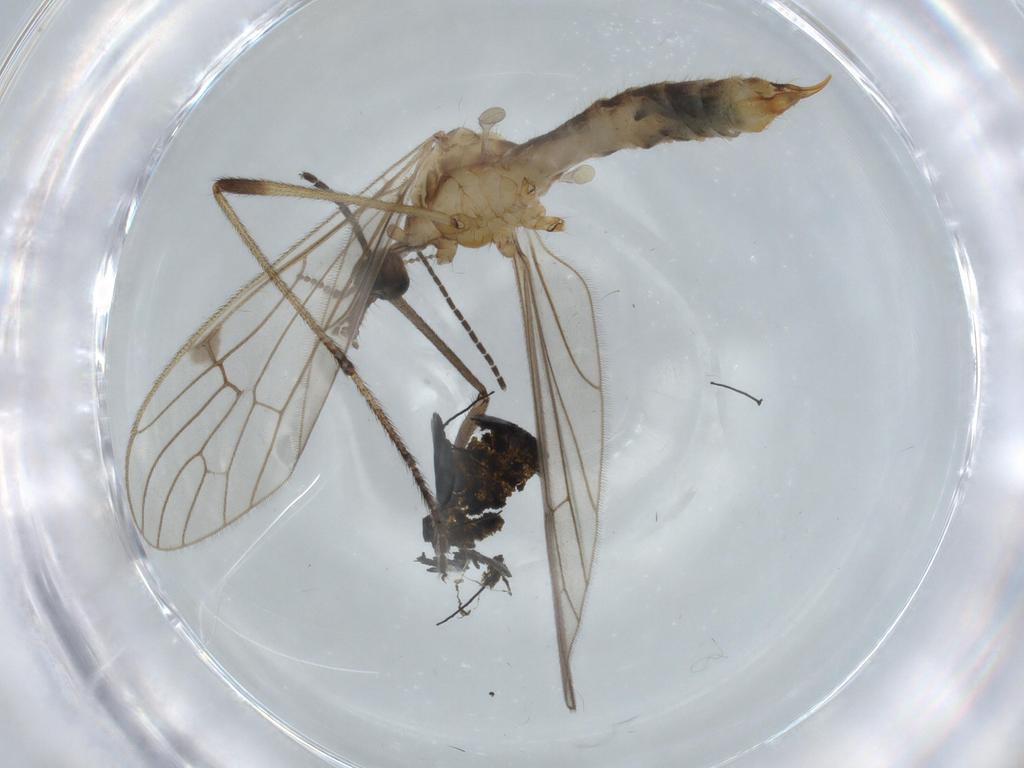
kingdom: Animalia
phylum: Arthropoda
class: Insecta
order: Diptera
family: Limoniidae
